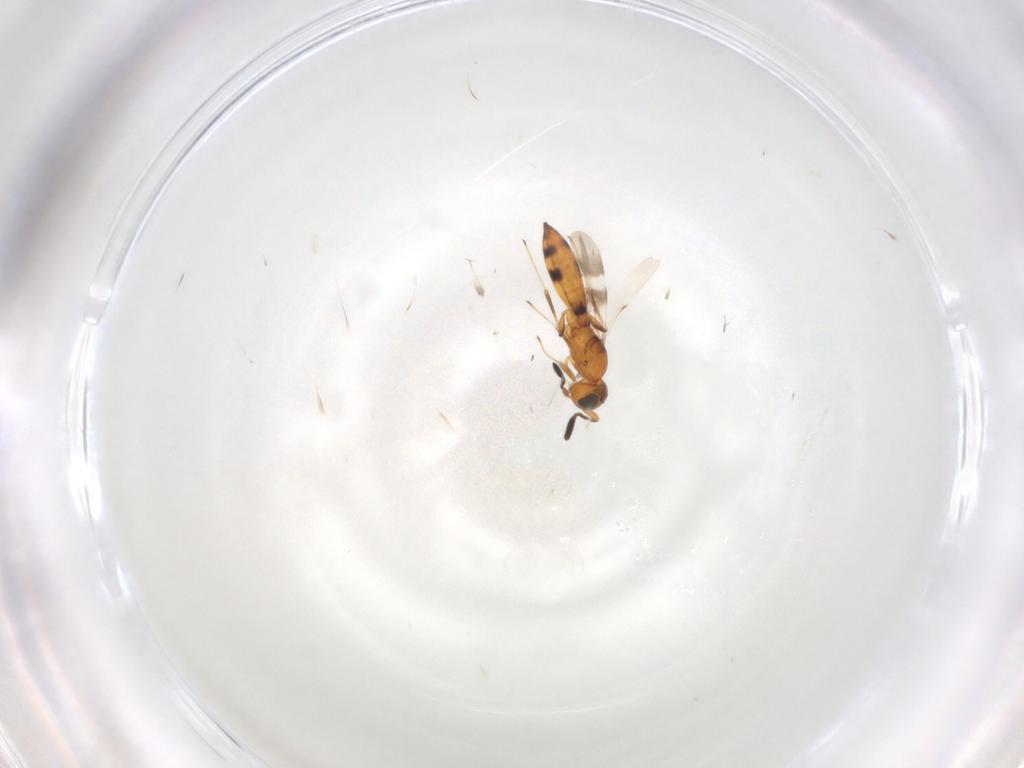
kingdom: Animalia
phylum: Arthropoda
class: Insecta
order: Hymenoptera
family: Scelionidae
